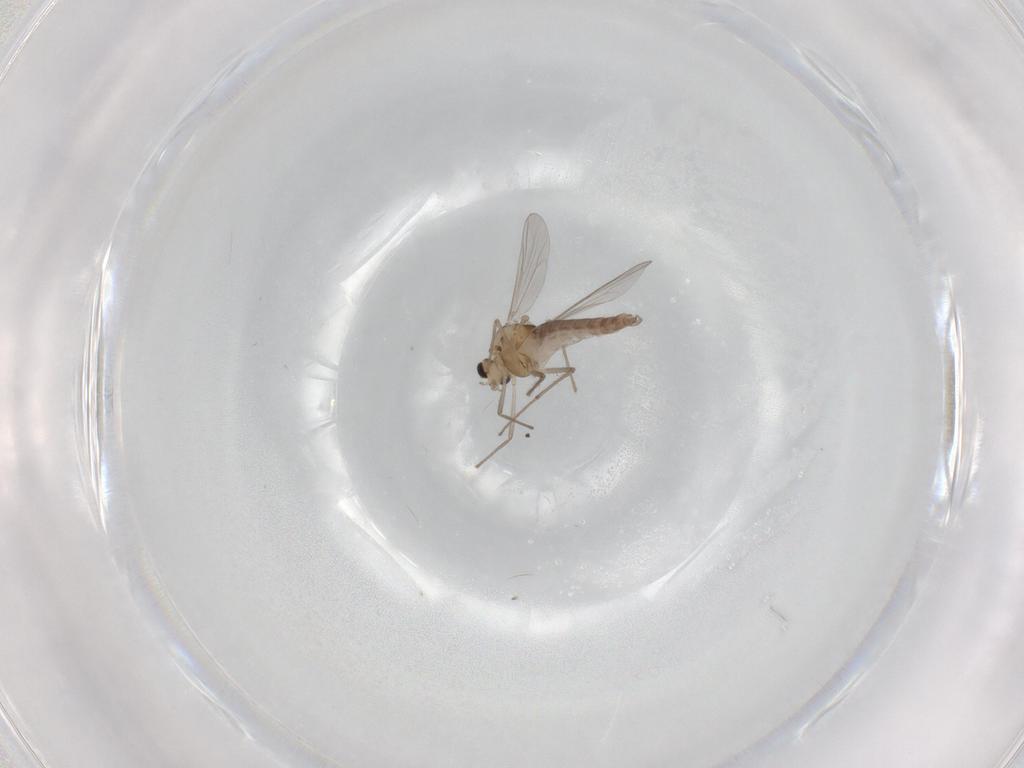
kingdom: Animalia
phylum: Arthropoda
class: Insecta
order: Diptera
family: Chironomidae
